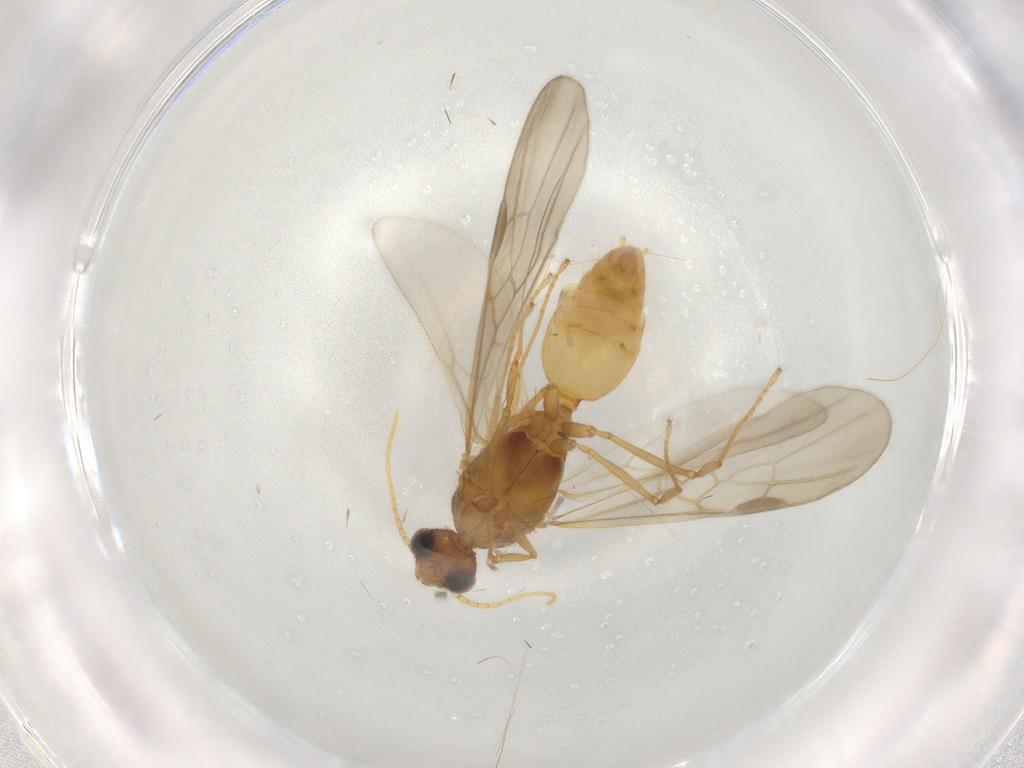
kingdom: Animalia
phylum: Arthropoda
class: Insecta
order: Hymenoptera
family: Formicidae
